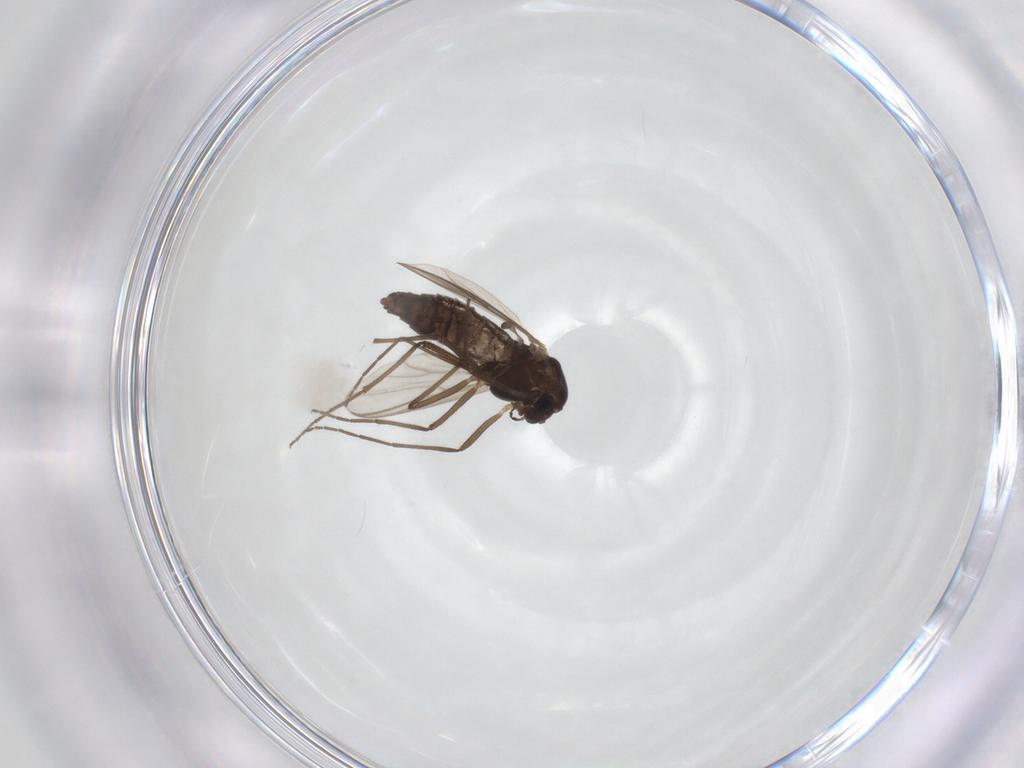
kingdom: Animalia
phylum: Arthropoda
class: Insecta
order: Diptera
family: Chironomidae
